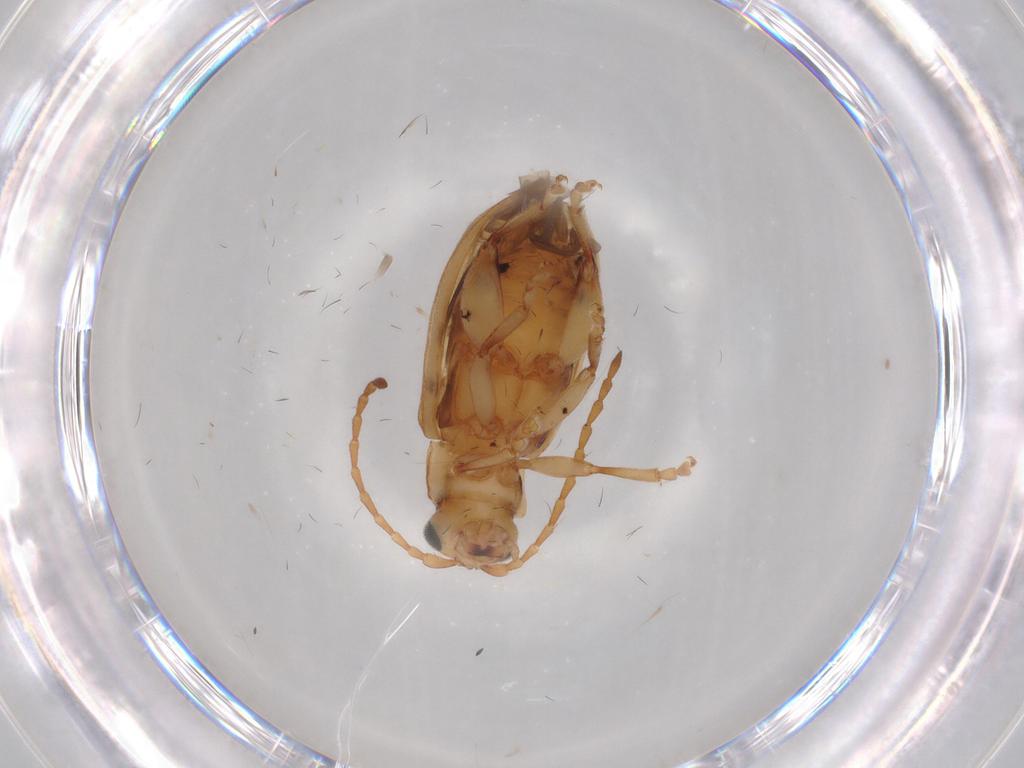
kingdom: Animalia
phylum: Arthropoda
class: Insecta
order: Coleoptera
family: Chrysomelidae
